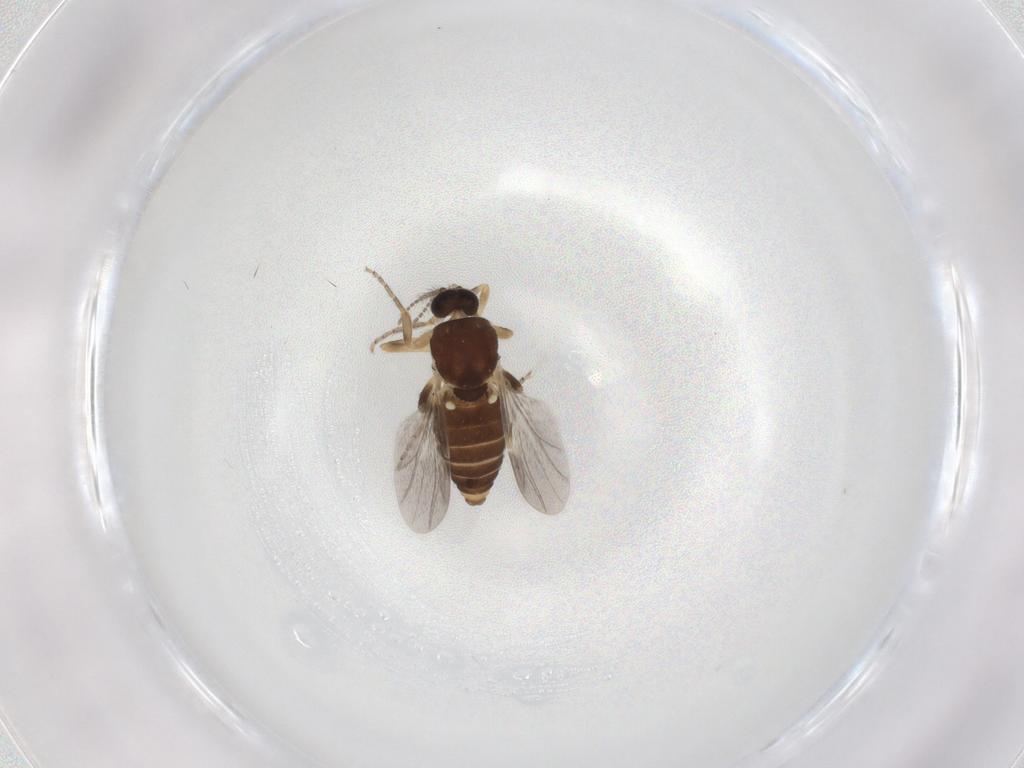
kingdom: Animalia
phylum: Arthropoda
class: Insecta
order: Diptera
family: Ceratopogonidae
